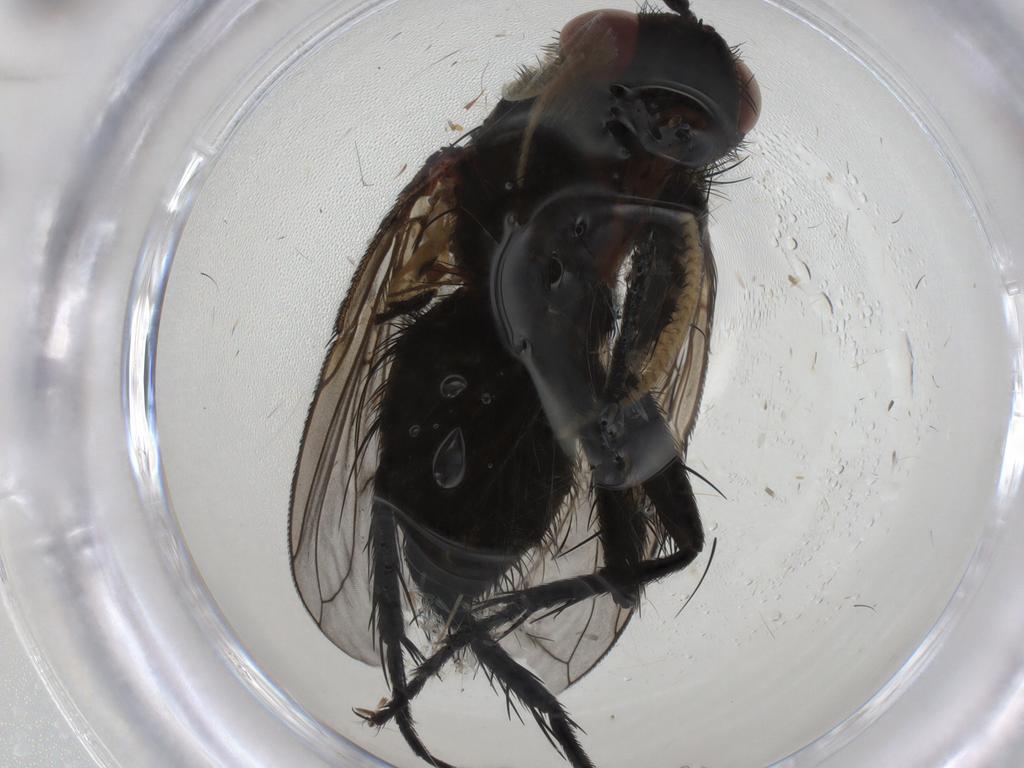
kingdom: Animalia
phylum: Arthropoda
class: Insecta
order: Diptera
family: Tachinidae
